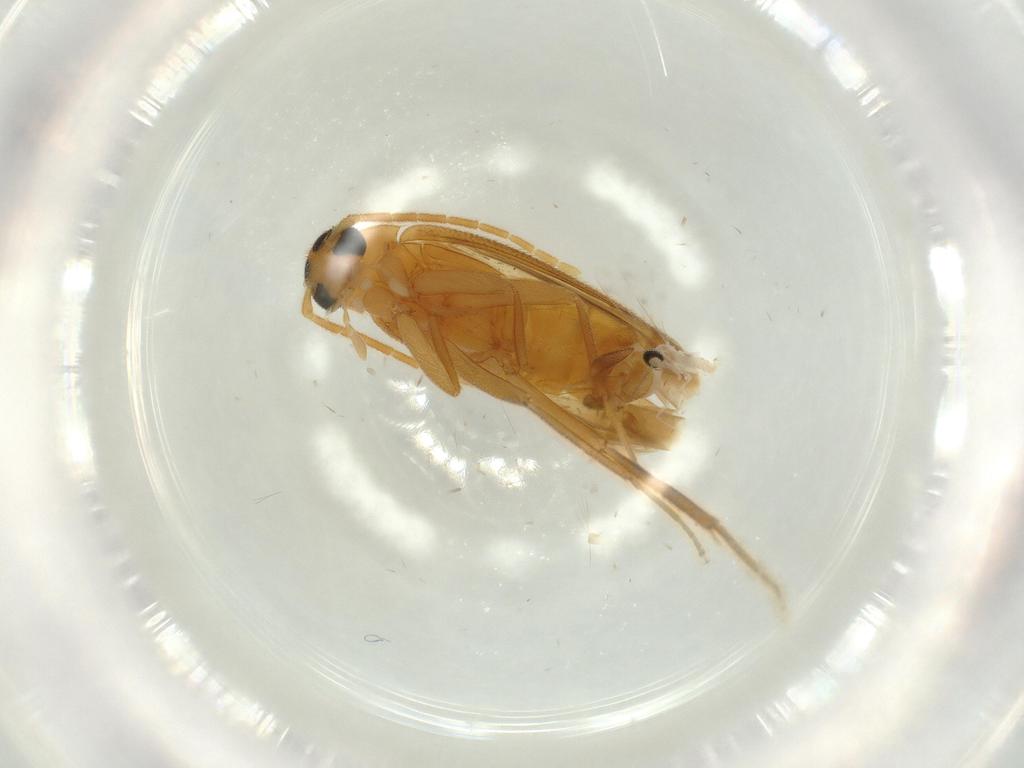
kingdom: Animalia
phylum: Arthropoda
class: Insecta
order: Coleoptera
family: Scraptiidae
